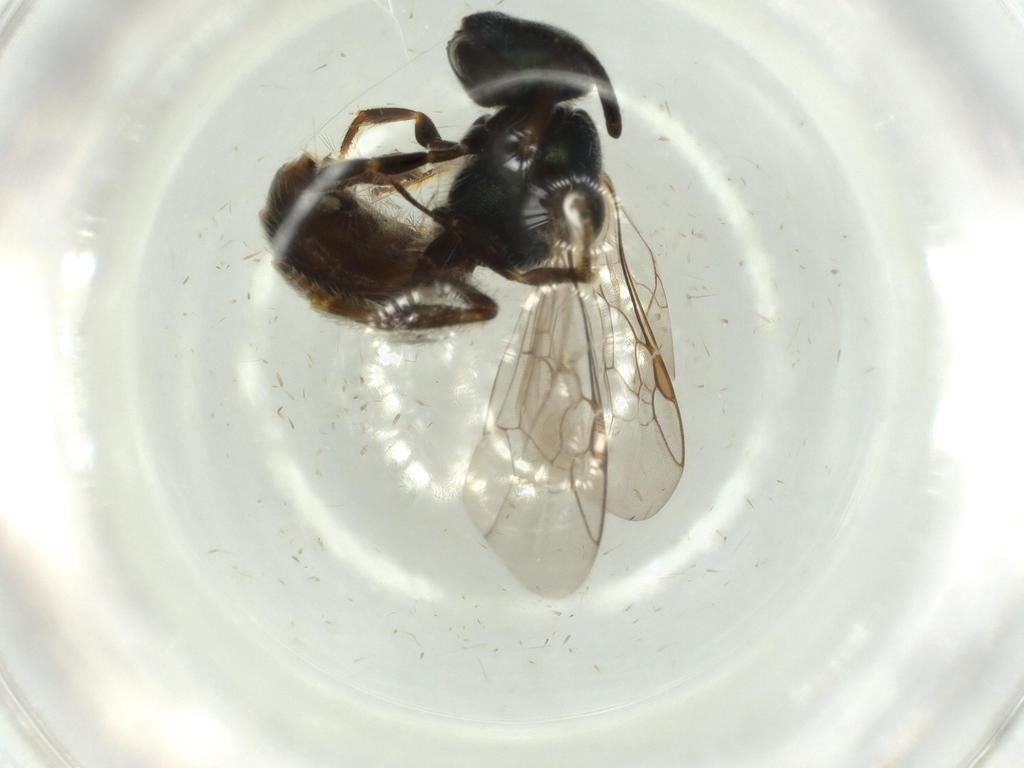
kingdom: Animalia
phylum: Arthropoda
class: Insecta
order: Hymenoptera
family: Halictidae
